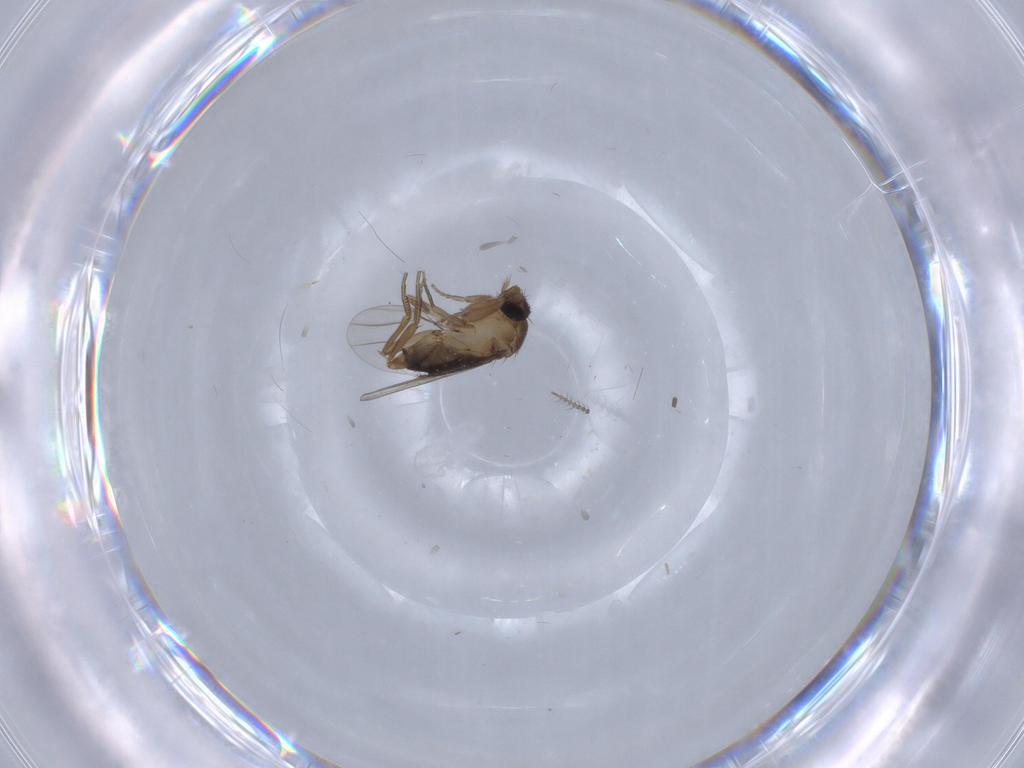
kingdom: Animalia
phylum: Arthropoda
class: Insecta
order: Diptera
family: Phoridae
